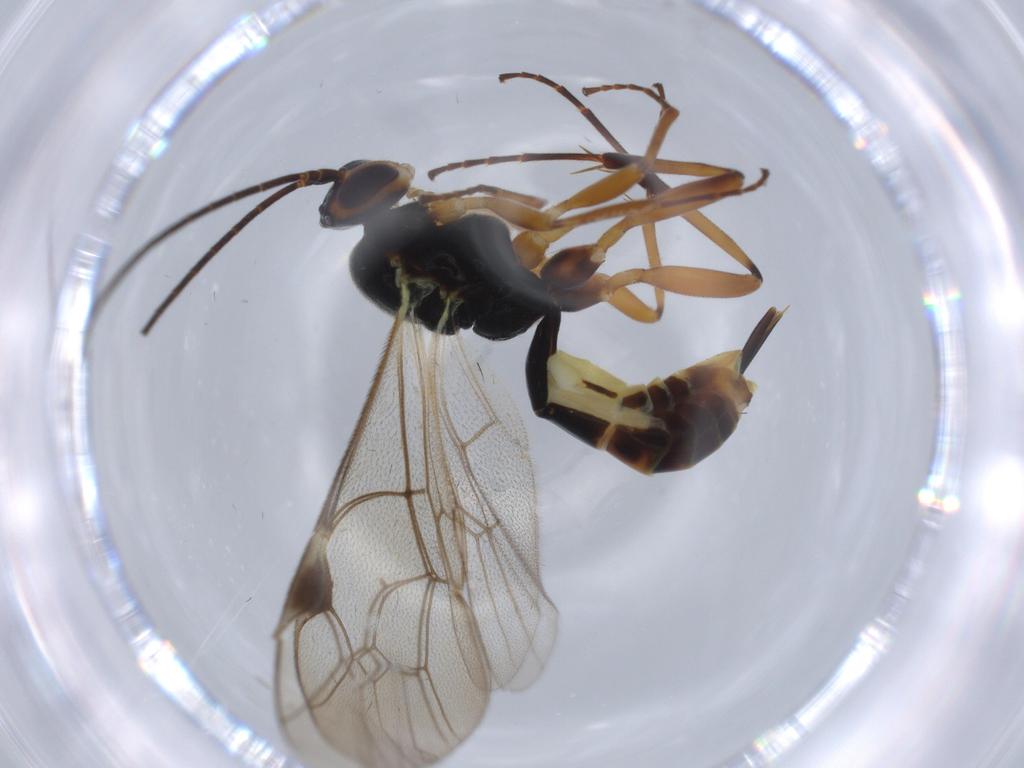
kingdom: Animalia
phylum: Arthropoda
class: Insecta
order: Hymenoptera
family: Braconidae
